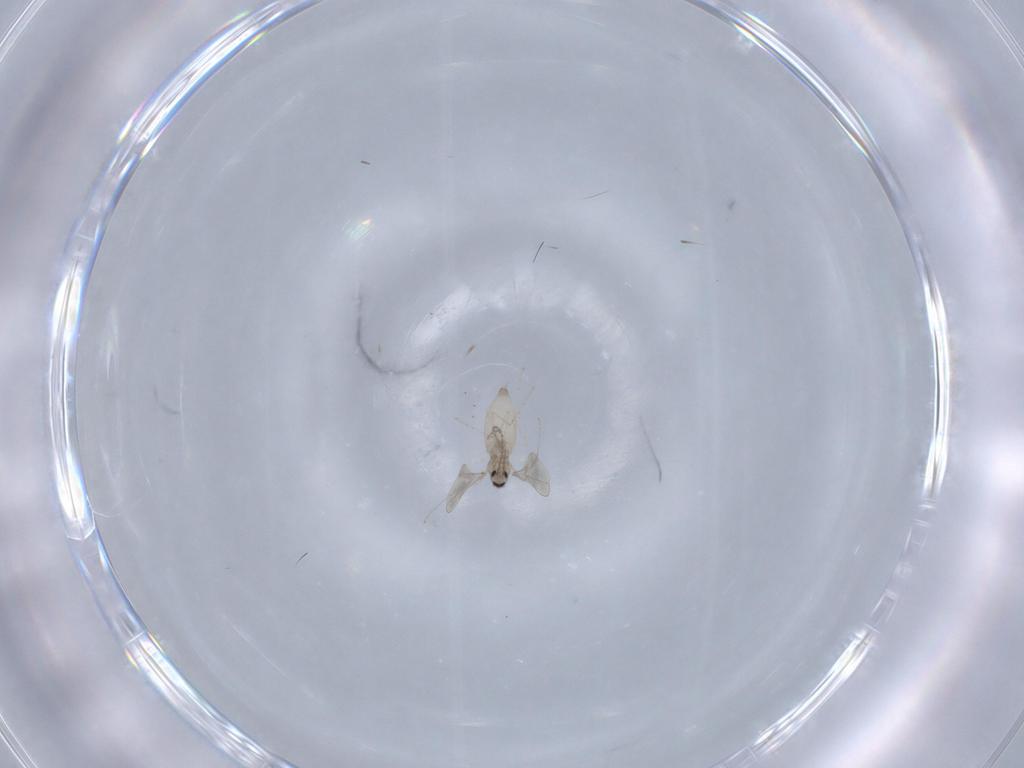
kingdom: Animalia
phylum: Arthropoda
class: Insecta
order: Diptera
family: Cecidomyiidae
